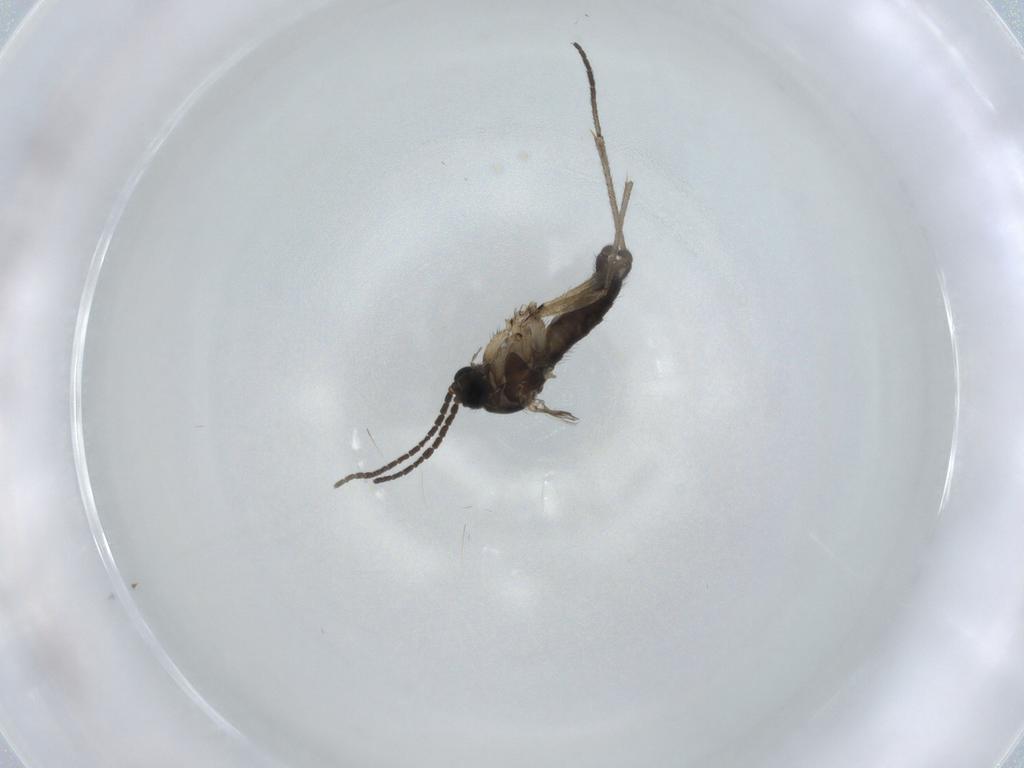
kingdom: Animalia
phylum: Arthropoda
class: Insecta
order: Diptera
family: Sciaridae
